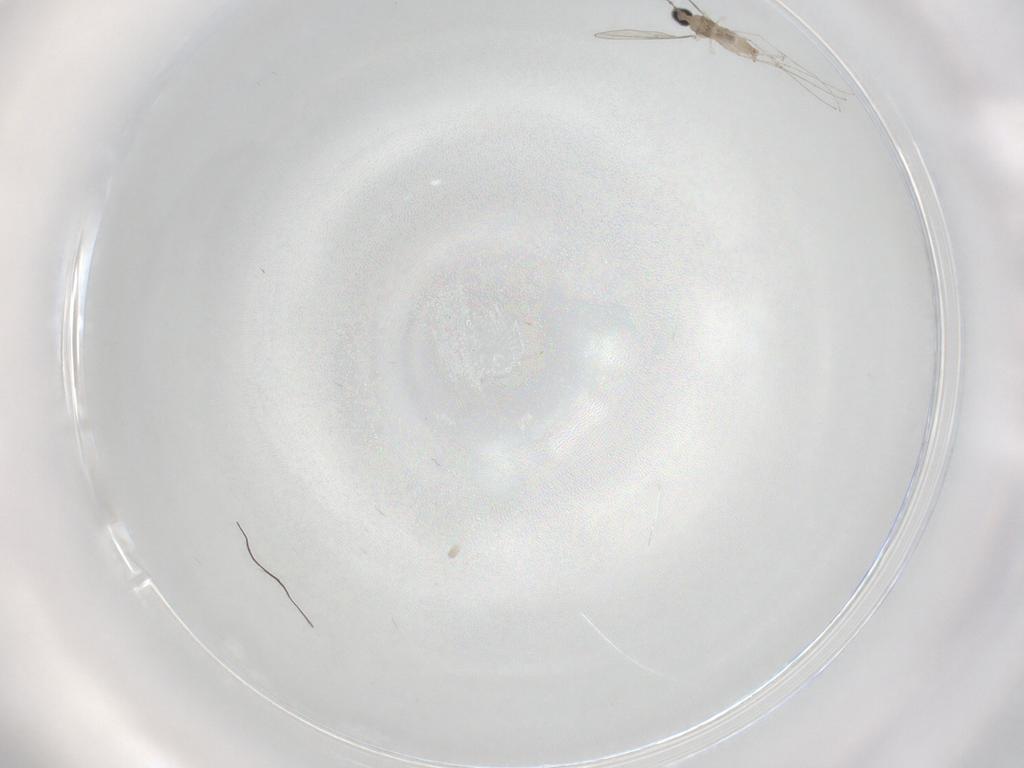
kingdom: Animalia
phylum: Arthropoda
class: Insecta
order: Diptera
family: Cecidomyiidae
